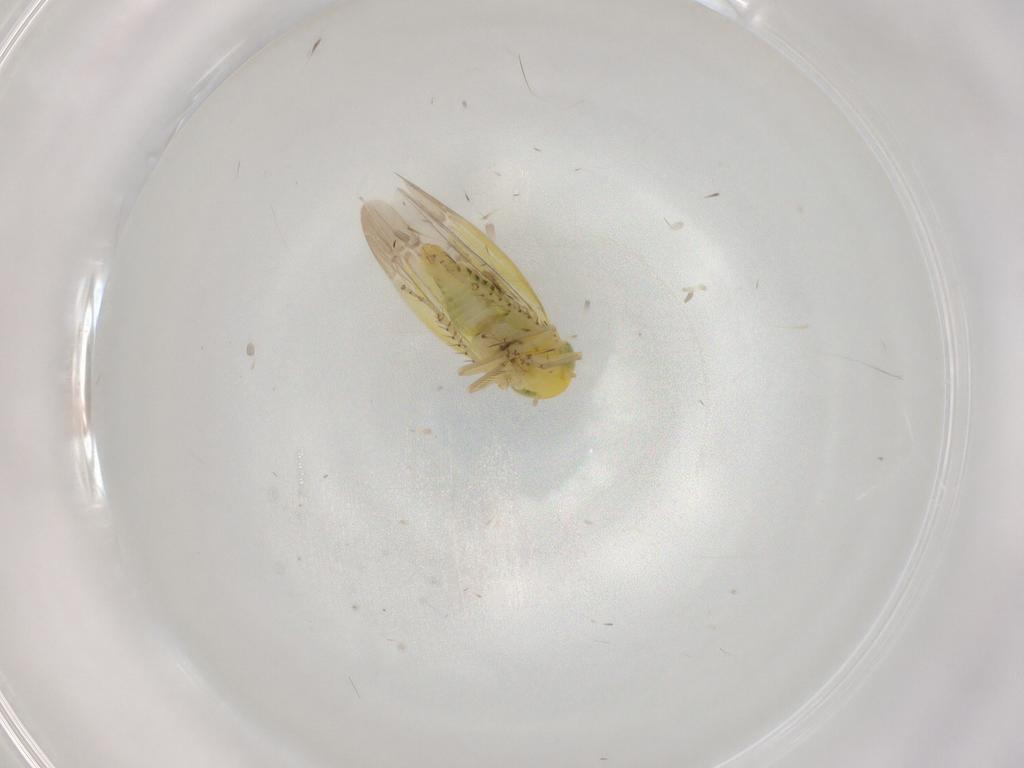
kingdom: Animalia
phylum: Arthropoda
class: Insecta
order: Hemiptera
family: Cicadellidae
